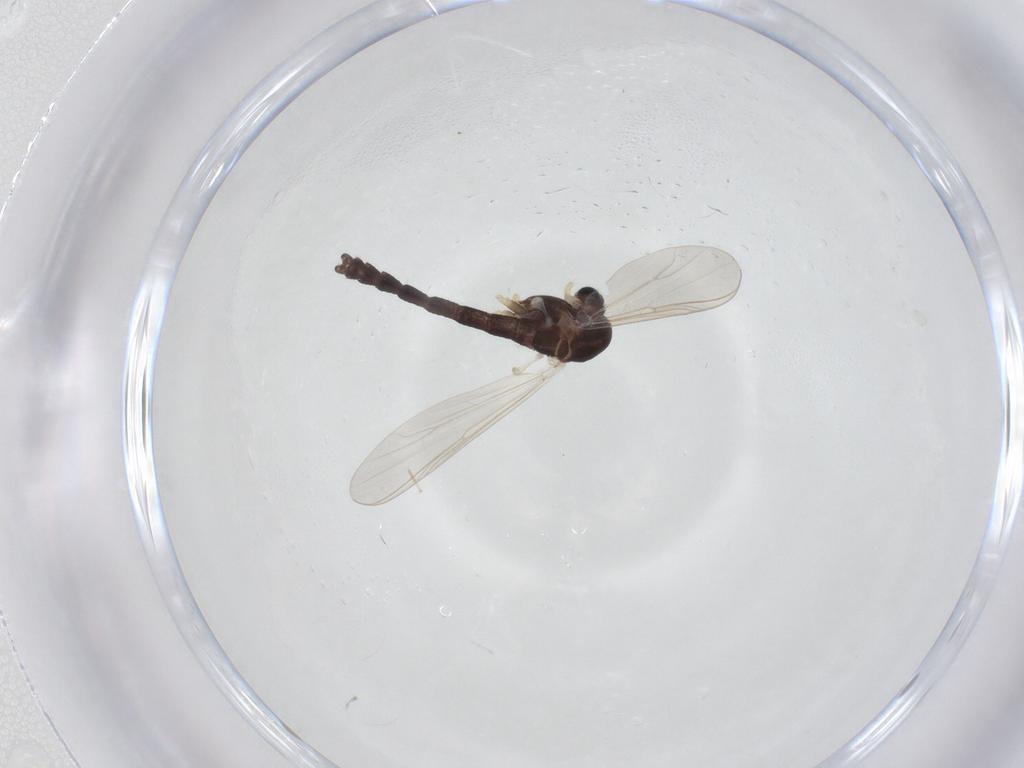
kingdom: Animalia
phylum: Arthropoda
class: Insecta
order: Diptera
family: Chironomidae
